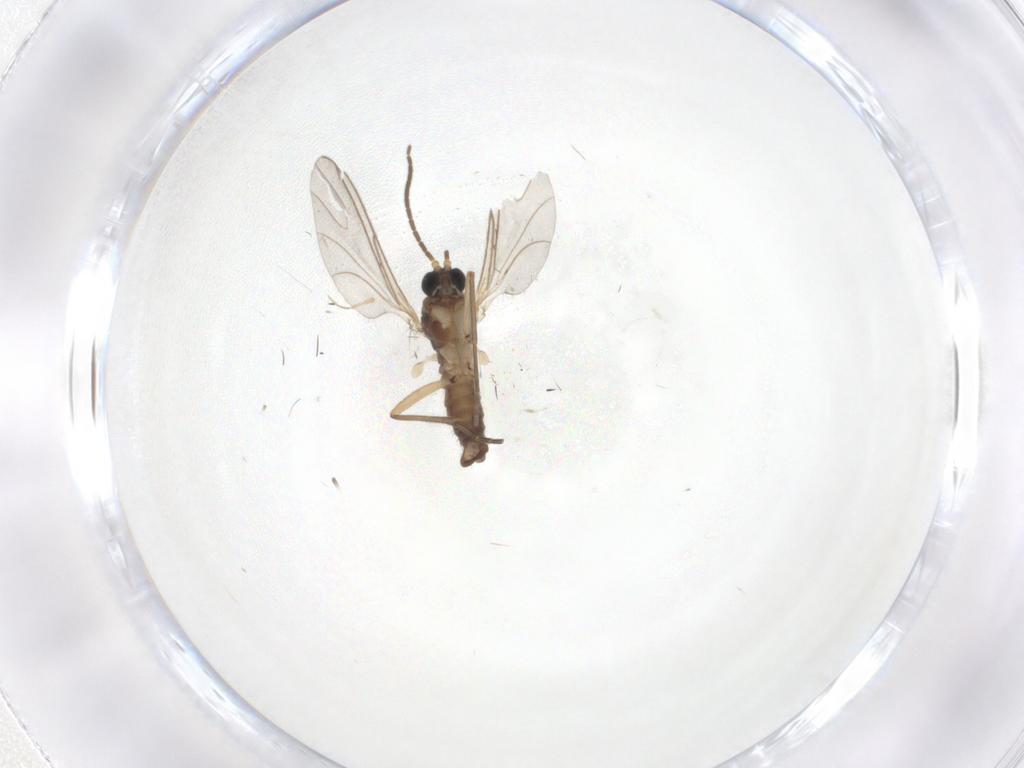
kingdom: Animalia
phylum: Arthropoda
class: Insecta
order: Diptera
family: Sciaridae
